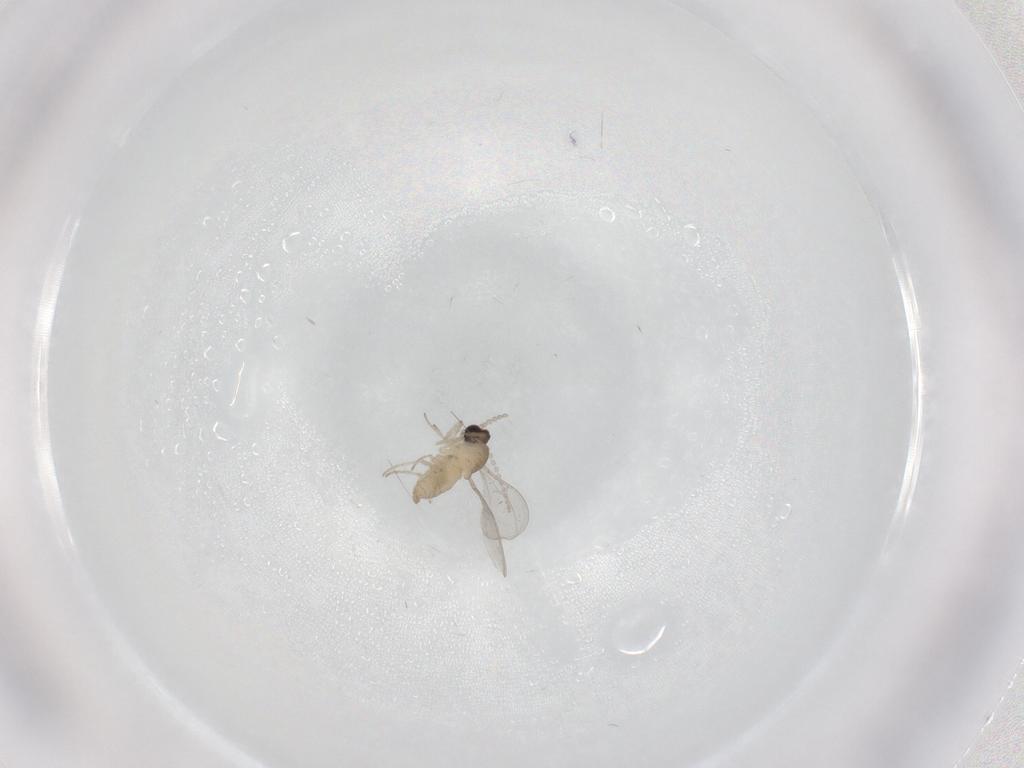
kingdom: Animalia
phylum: Arthropoda
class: Insecta
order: Diptera
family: Cecidomyiidae
